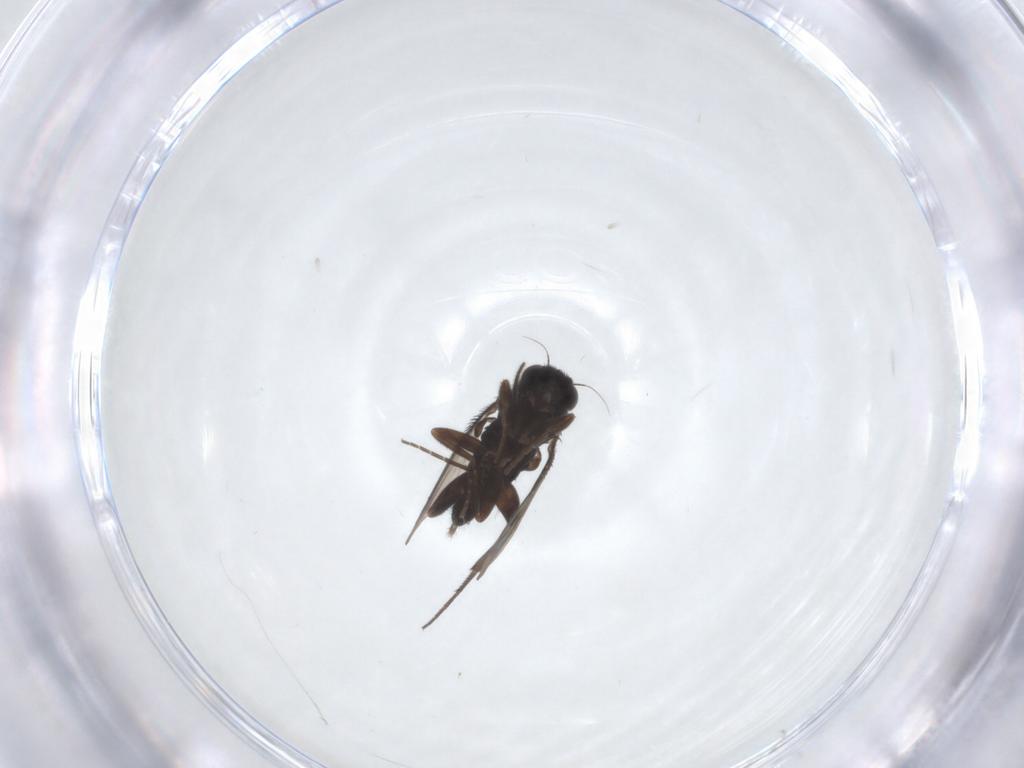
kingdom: Animalia
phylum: Arthropoda
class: Insecta
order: Diptera
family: Phoridae
